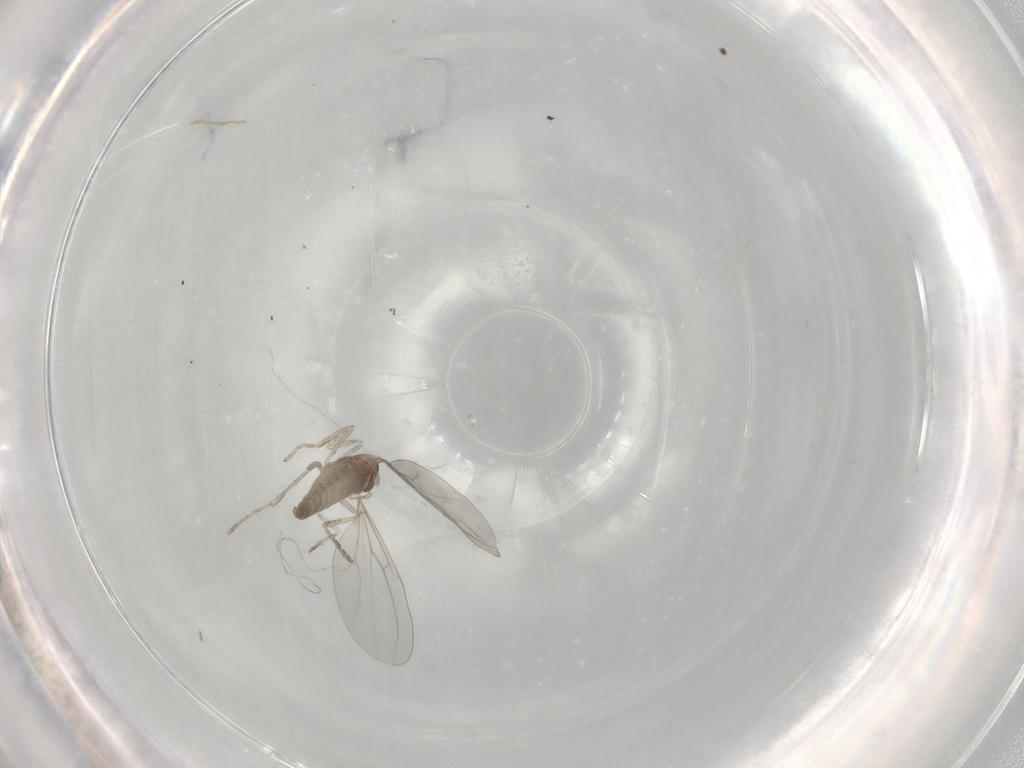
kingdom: Animalia
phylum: Arthropoda
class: Insecta
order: Diptera
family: Cecidomyiidae
